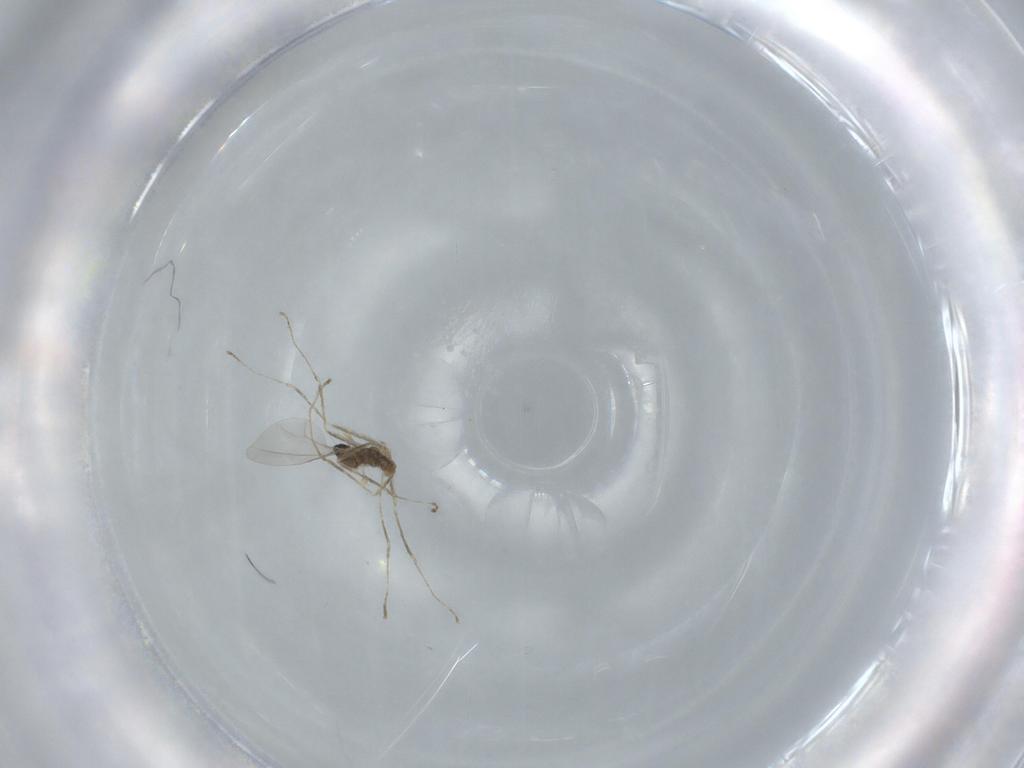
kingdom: Animalia
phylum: Arthropoda
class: Insecta
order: Diptera
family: Cecidomyiidae
